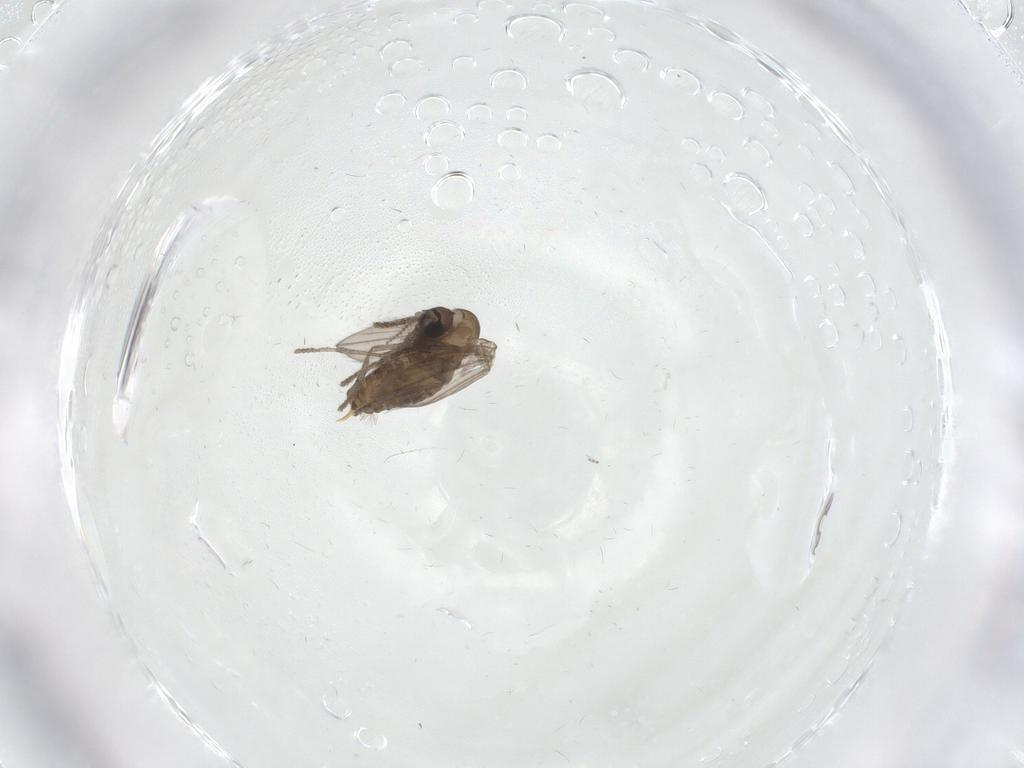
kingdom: Animalia
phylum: Arthropoda
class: Insecta
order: Diptera
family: Psychodidae
